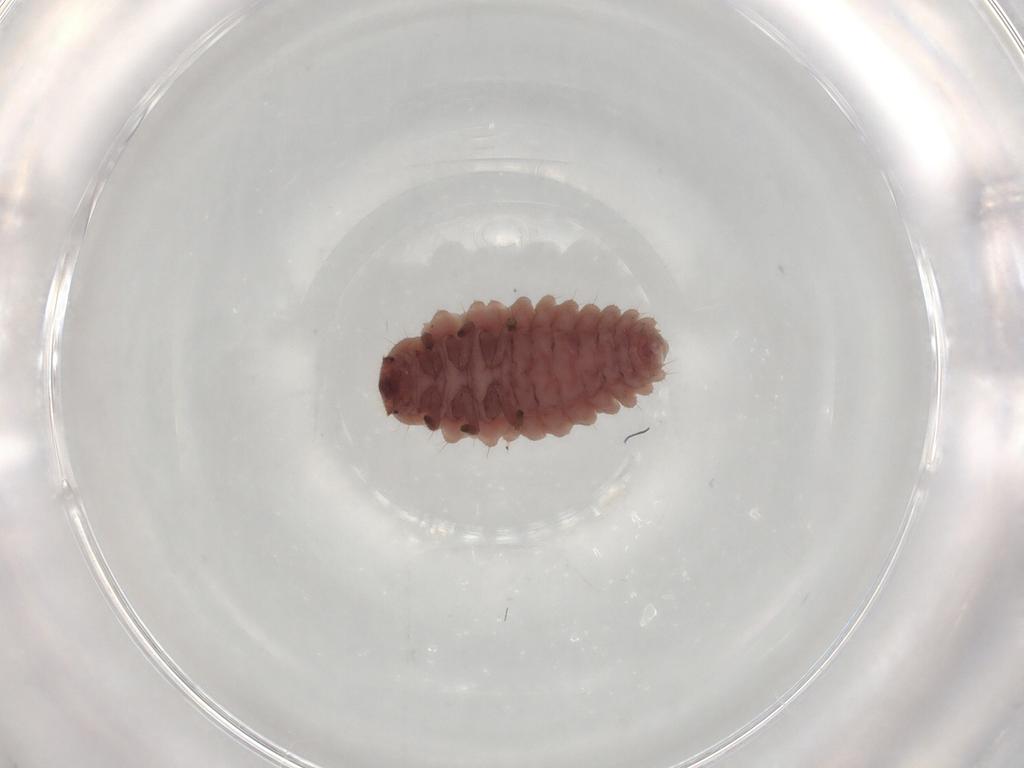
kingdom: Animalia
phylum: Arthropoda
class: Insecta
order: Coleoptera
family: Coccinellidae
